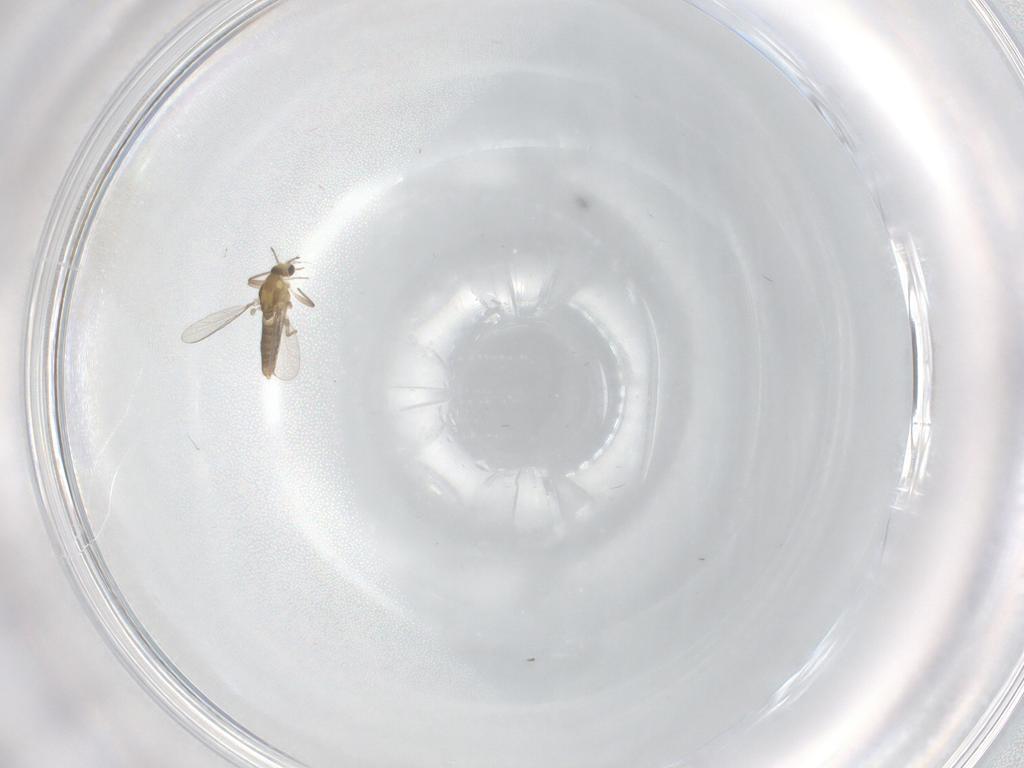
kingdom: Animalia
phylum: Arthropoda
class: Insecta
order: Diptera
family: Chironomidae
